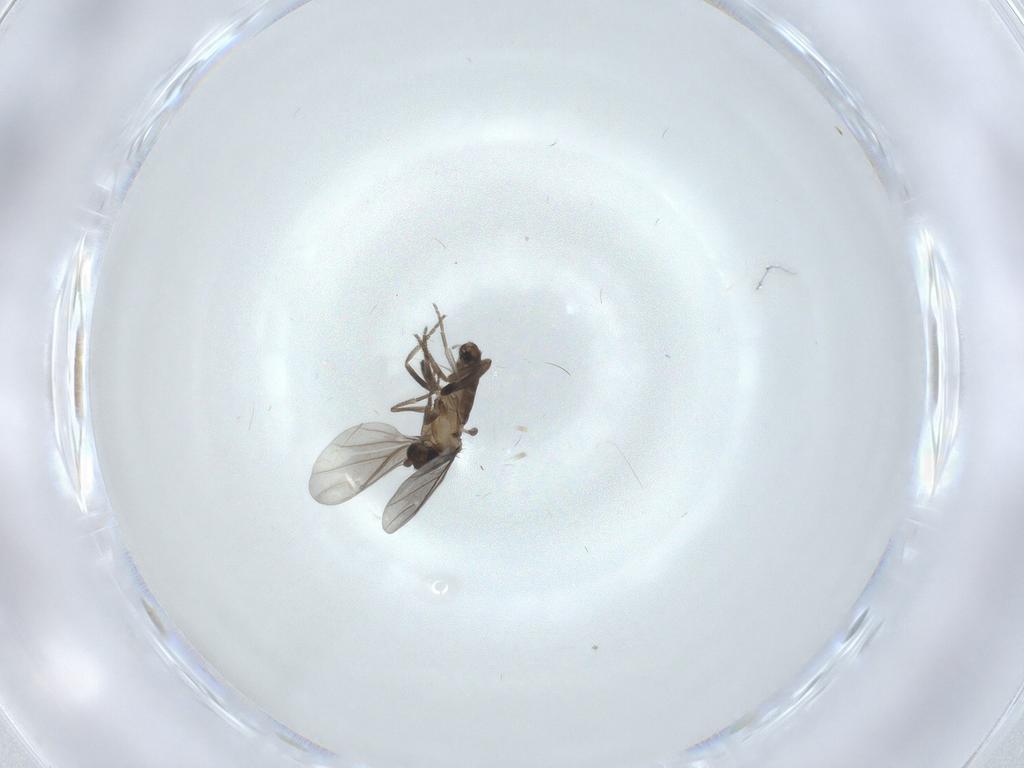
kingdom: Animalia
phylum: Arthropoda
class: Insecta
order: Diptera
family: Phoridae
